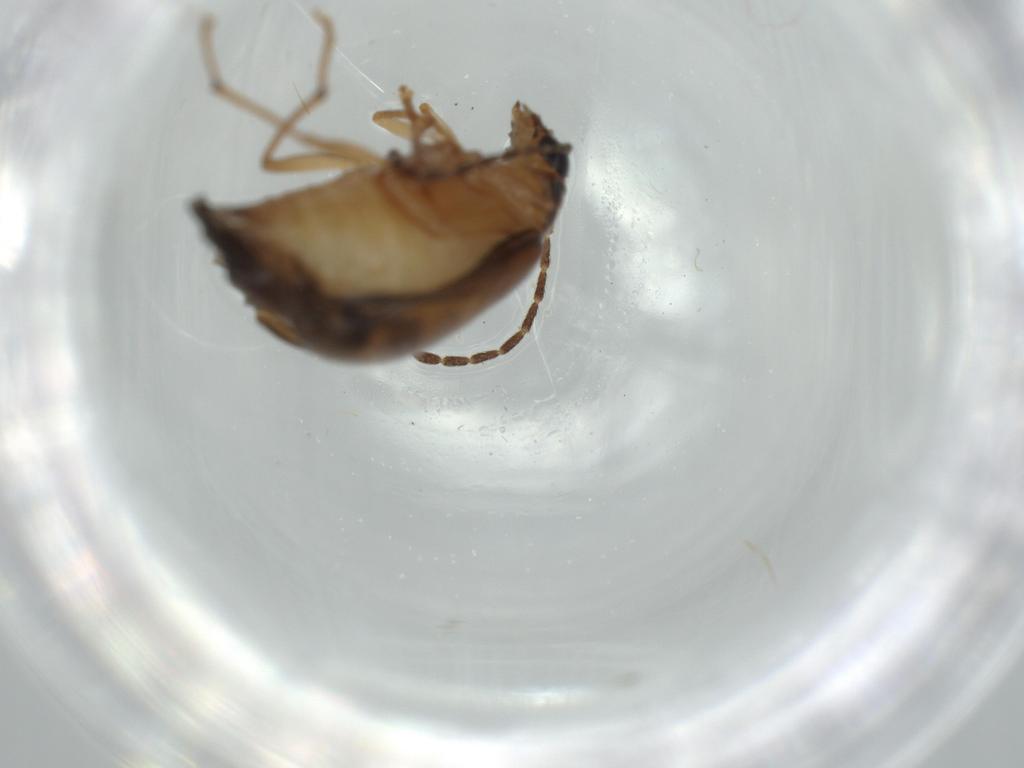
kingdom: Animalia
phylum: Arthropoda
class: Insecta
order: Coleoptera
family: Chrysomelidae
